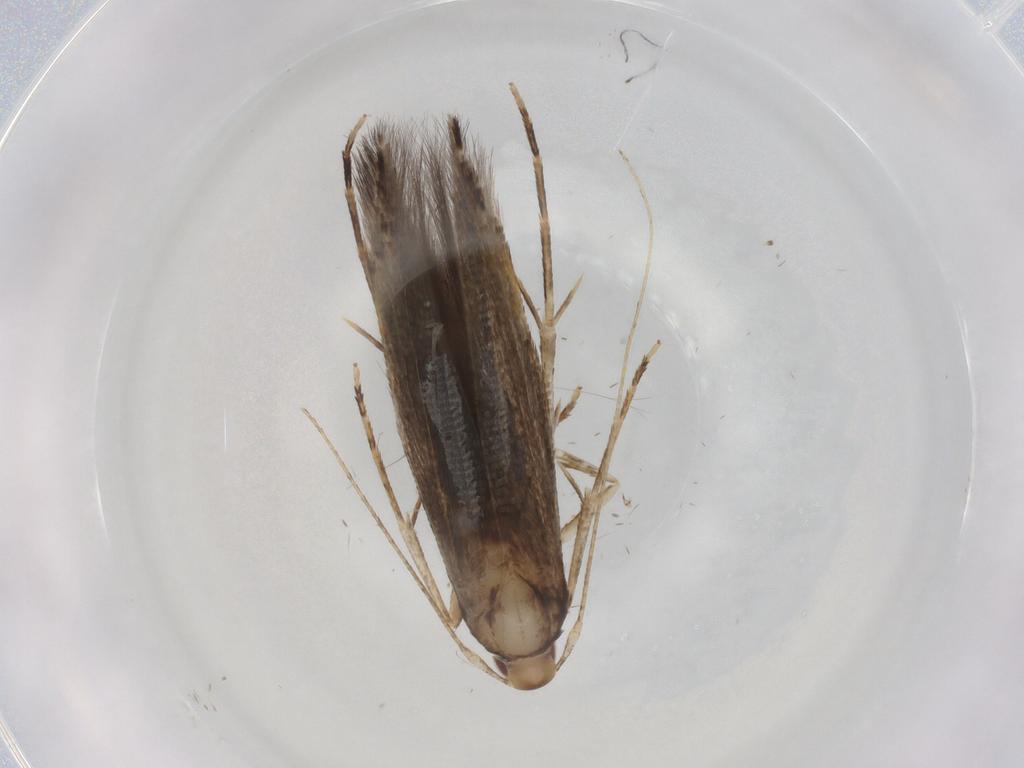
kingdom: Animalia
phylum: Arthropoda
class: Insecta
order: Lepidoptera
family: Cosmopterigidae
